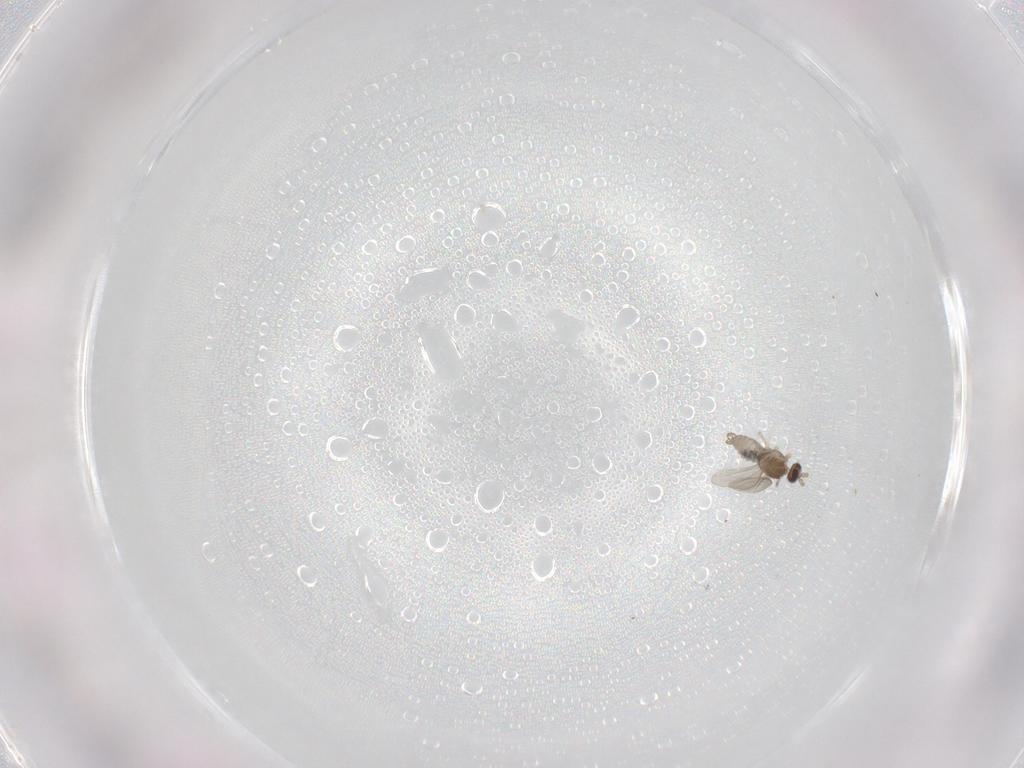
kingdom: Animalia
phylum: Arthropoda
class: Insecta
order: Diptera
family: Cecidomyiidae
